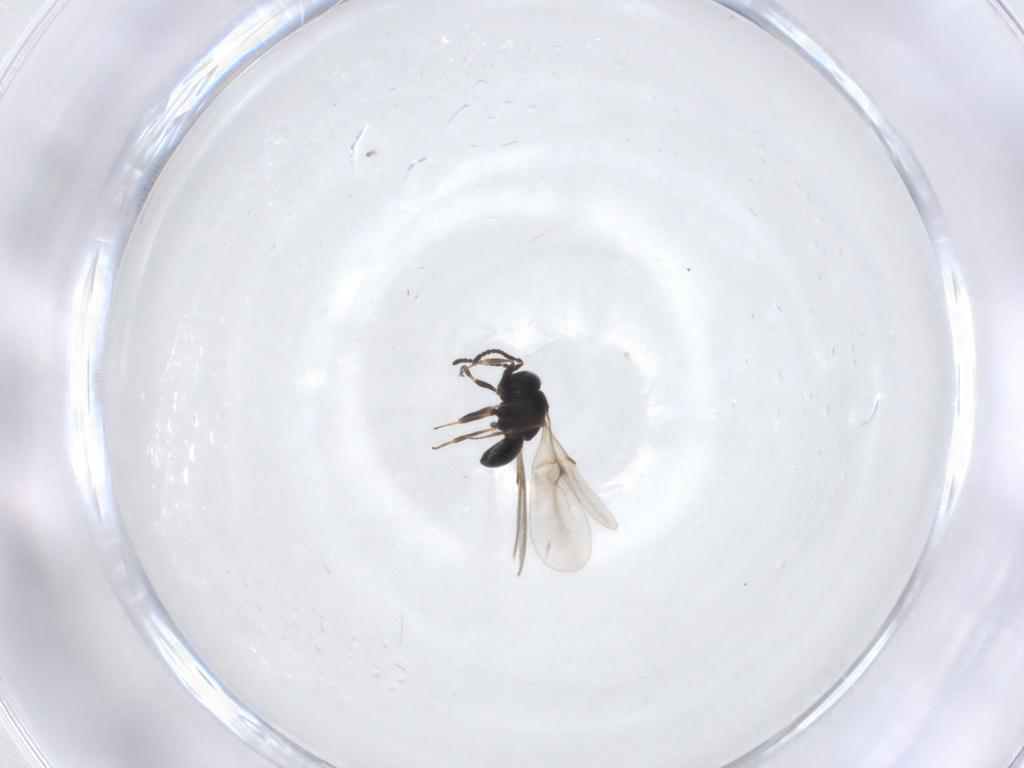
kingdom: Animalia
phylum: Arthropoda
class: Insecta
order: Hymenoptera
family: Scelionidae
